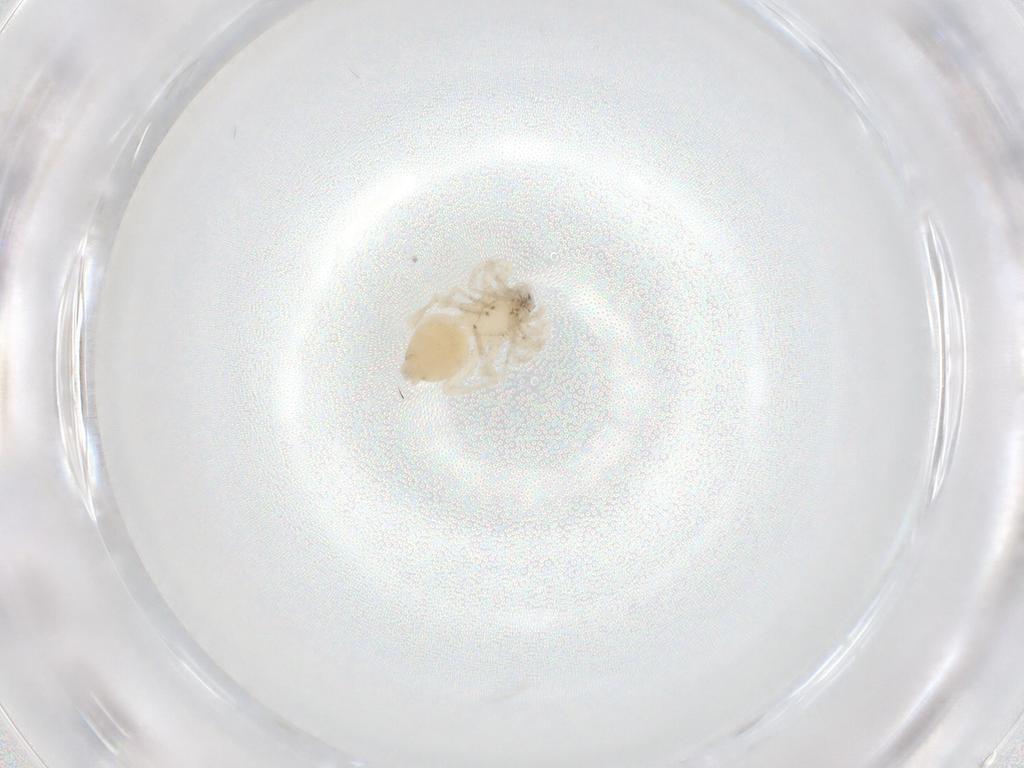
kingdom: Animalia
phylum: Arthropoda
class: Arachnida
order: Araneae
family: Gnaphosidae
